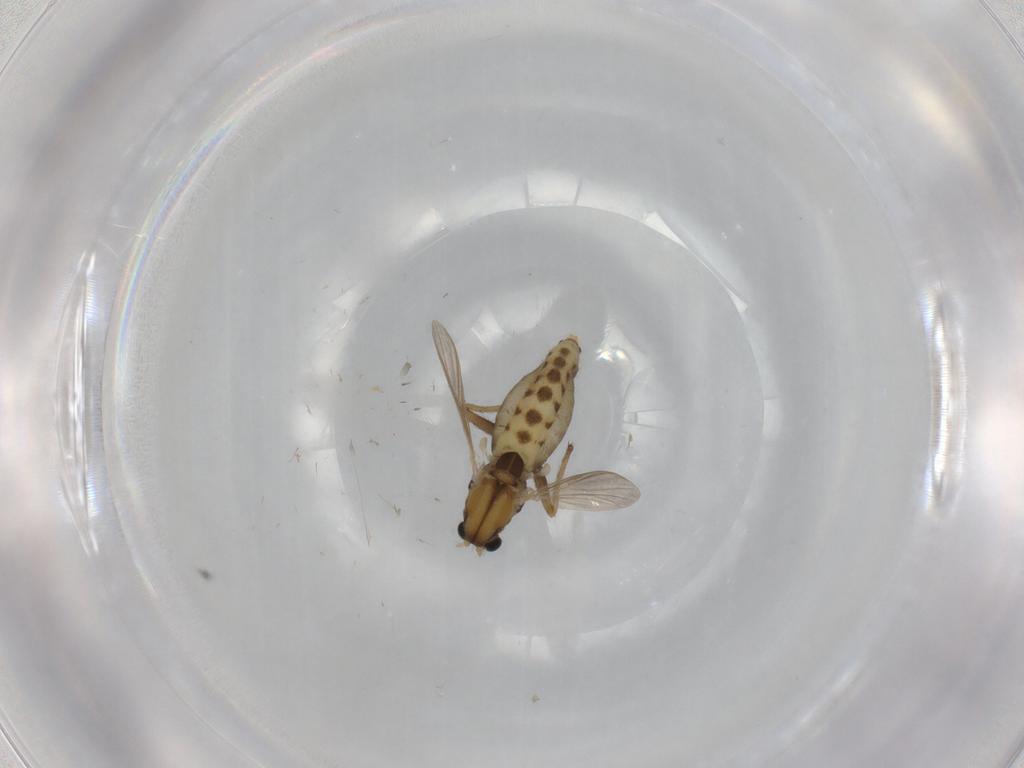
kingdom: Animalia
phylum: Arthropoda
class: Insecta
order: Diptera
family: Chironomidae
